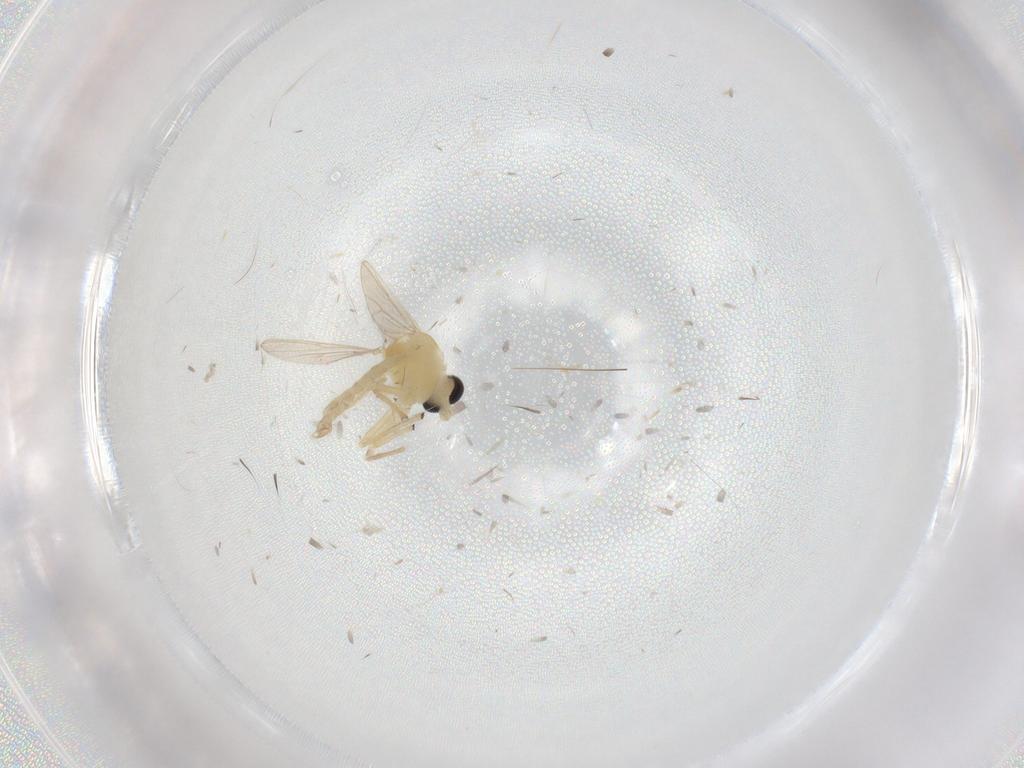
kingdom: Animalia
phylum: Arthropoda
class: Insecta
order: Diptera
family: Chironomidae
